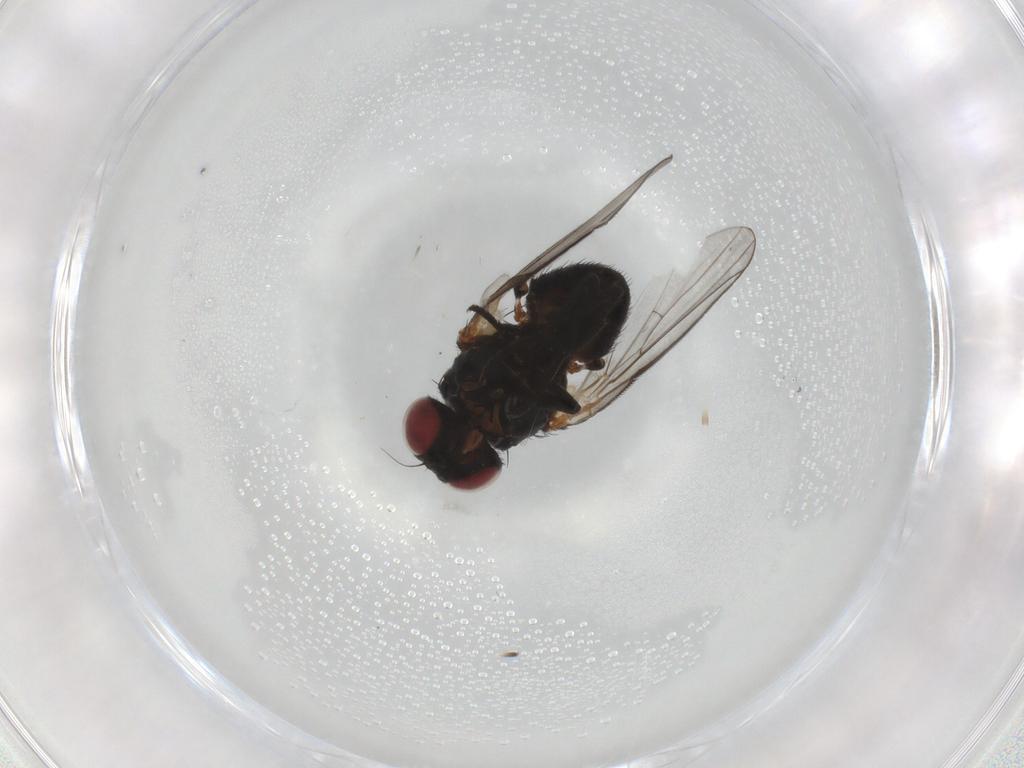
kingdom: Animalia
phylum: Arthropoda
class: Insecta
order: Diptera
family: Agromyzidae
